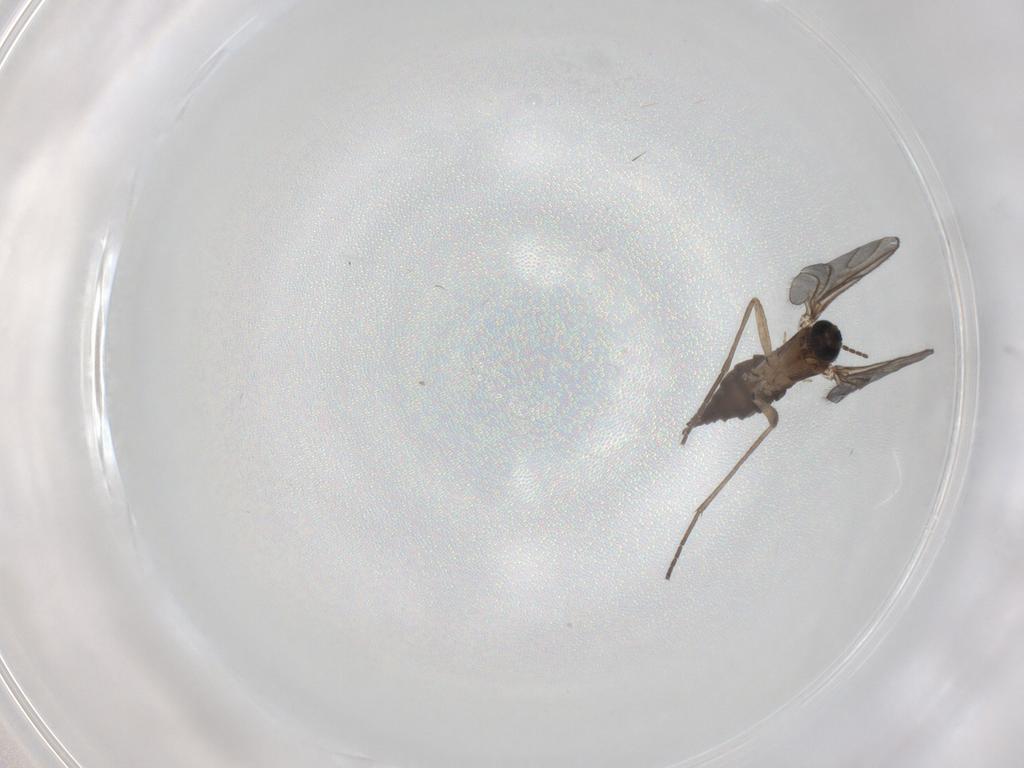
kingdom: Animalia
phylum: Arthropoda
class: Insecta
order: Diptera
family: Sciaridae
